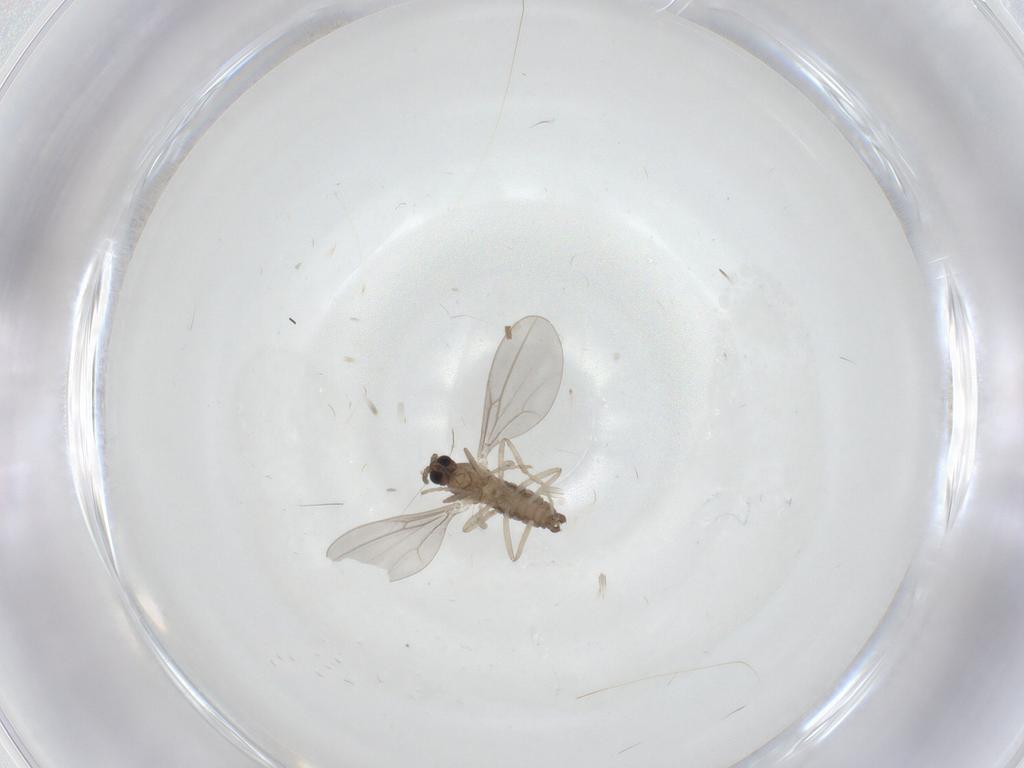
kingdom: Animalia
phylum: Arthropoda
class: Insecta
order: Diptera
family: Cecidomyiidae
